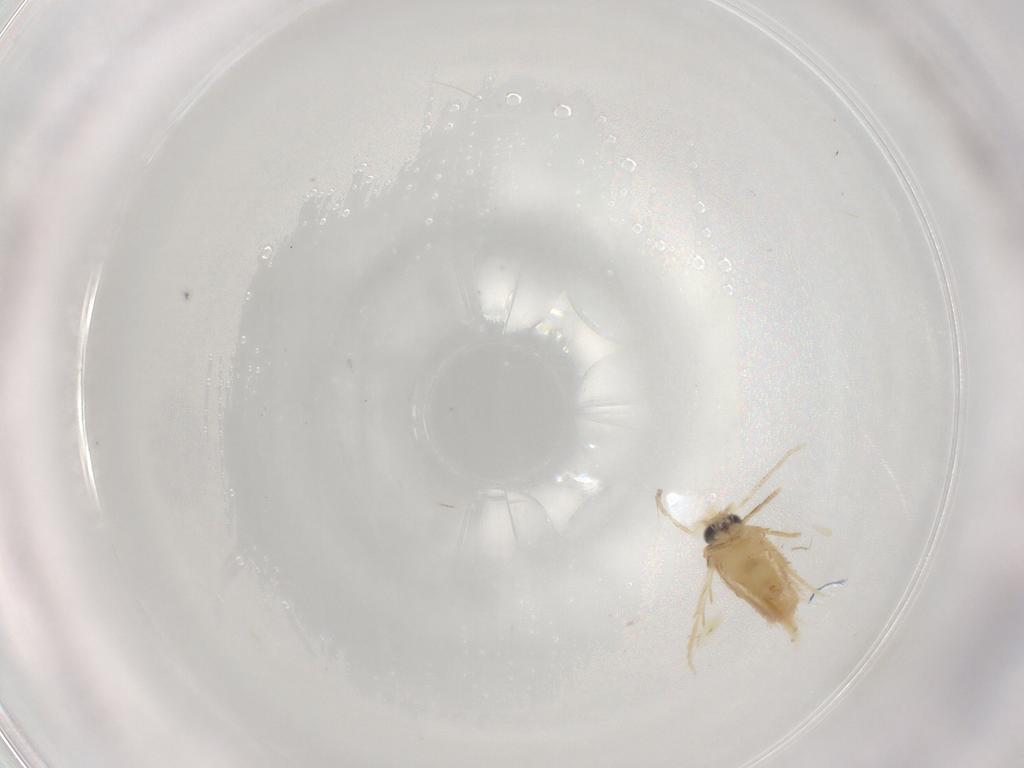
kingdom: Animalia
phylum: Arthropoda
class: Insecta
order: Lepidoptera
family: Nepticulidae
